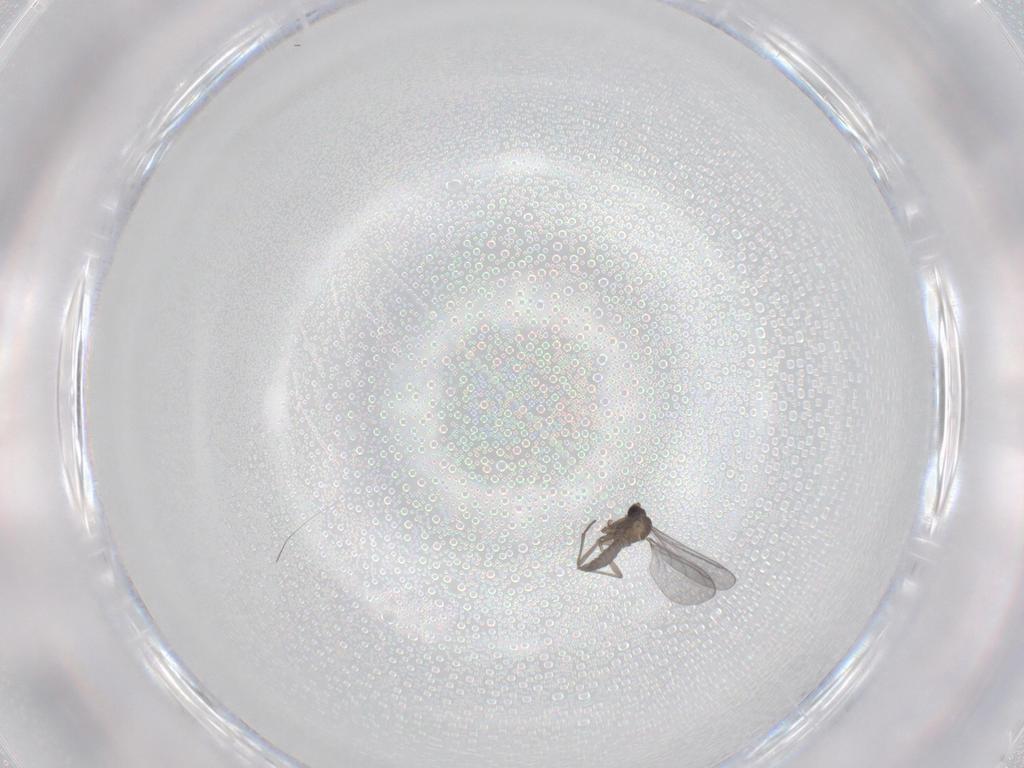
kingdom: Animalia
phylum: Arthropoda
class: Insecta
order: Diptera
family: Sciaridae
